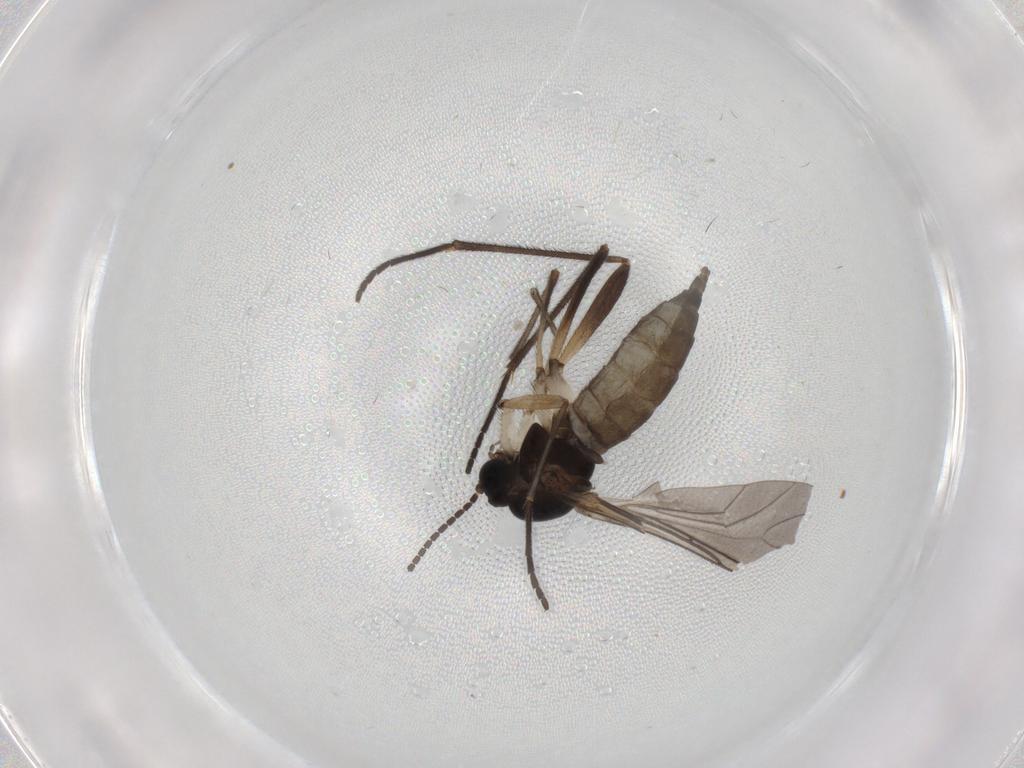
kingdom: Animalia
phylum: Arthropoda
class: Insecta
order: Diptera
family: Sciaridae
